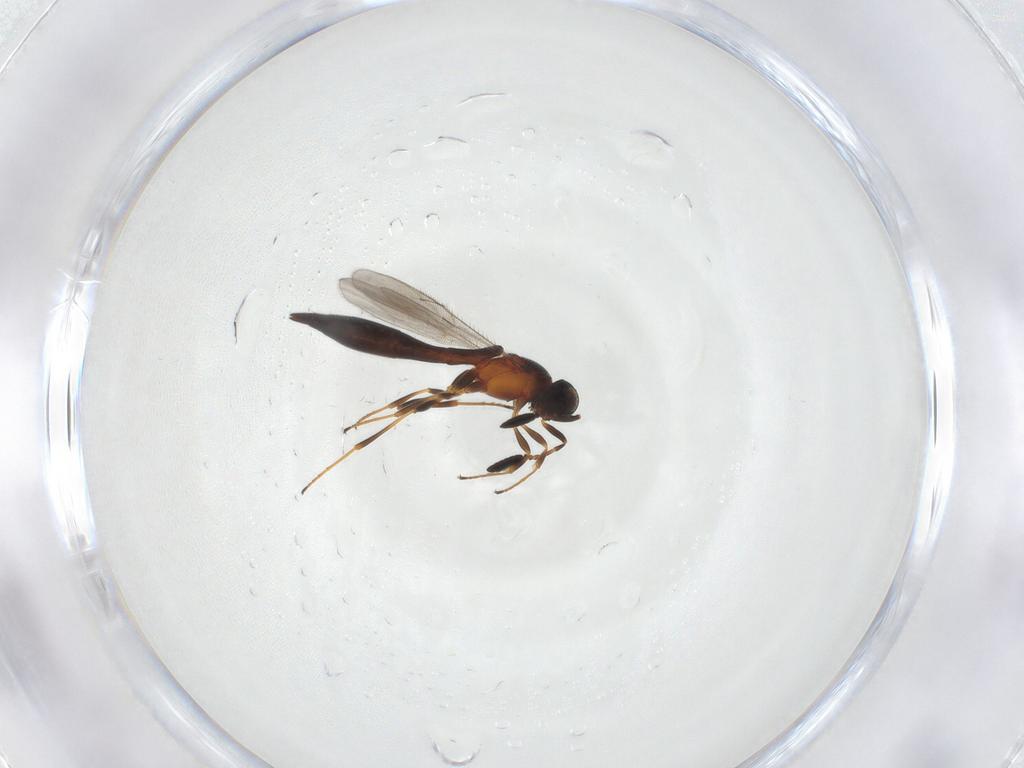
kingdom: Animalia
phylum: Arthropoda
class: Insecta
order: Hymenoptera
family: Scelionidae
